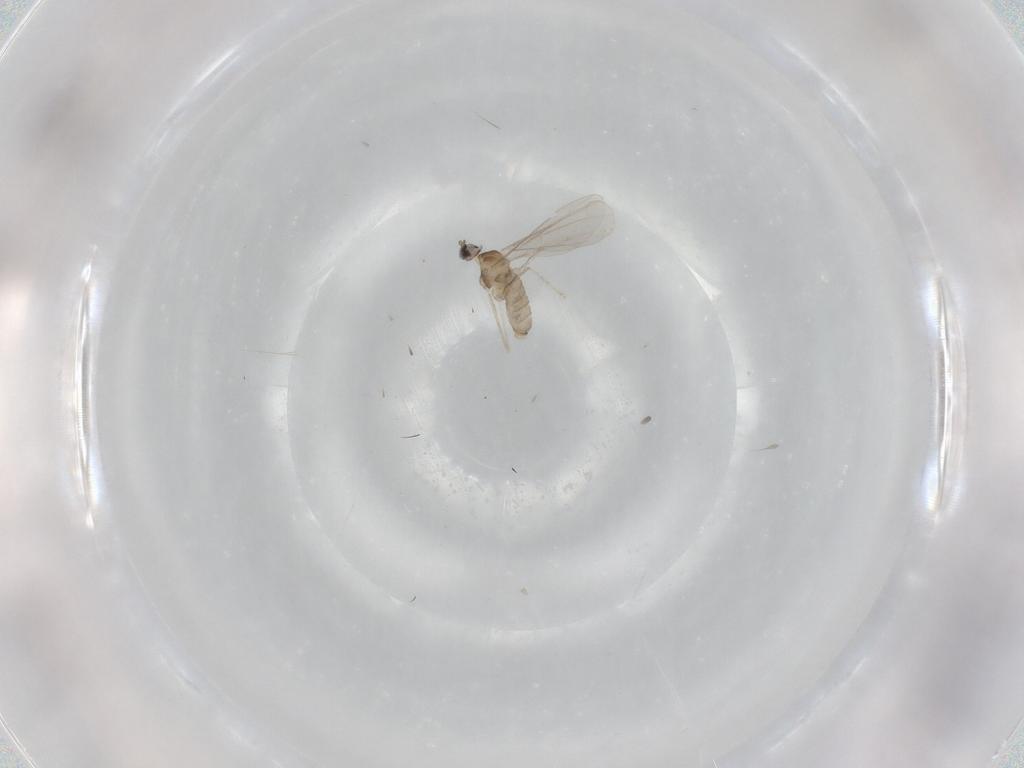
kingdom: Animalia
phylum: Arthropoda
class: Insecta
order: Diptera
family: Cecidomyiidae
